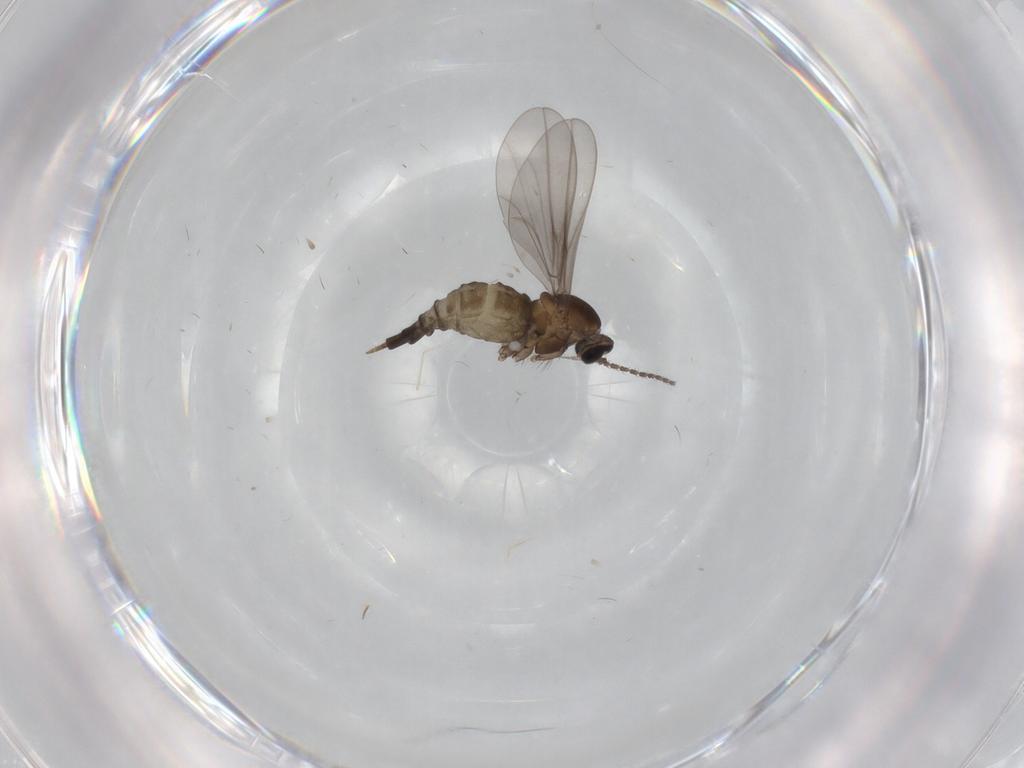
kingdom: Animalia
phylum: Arthropoda
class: Insecta
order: Diptera
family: Cecidomyiidae
